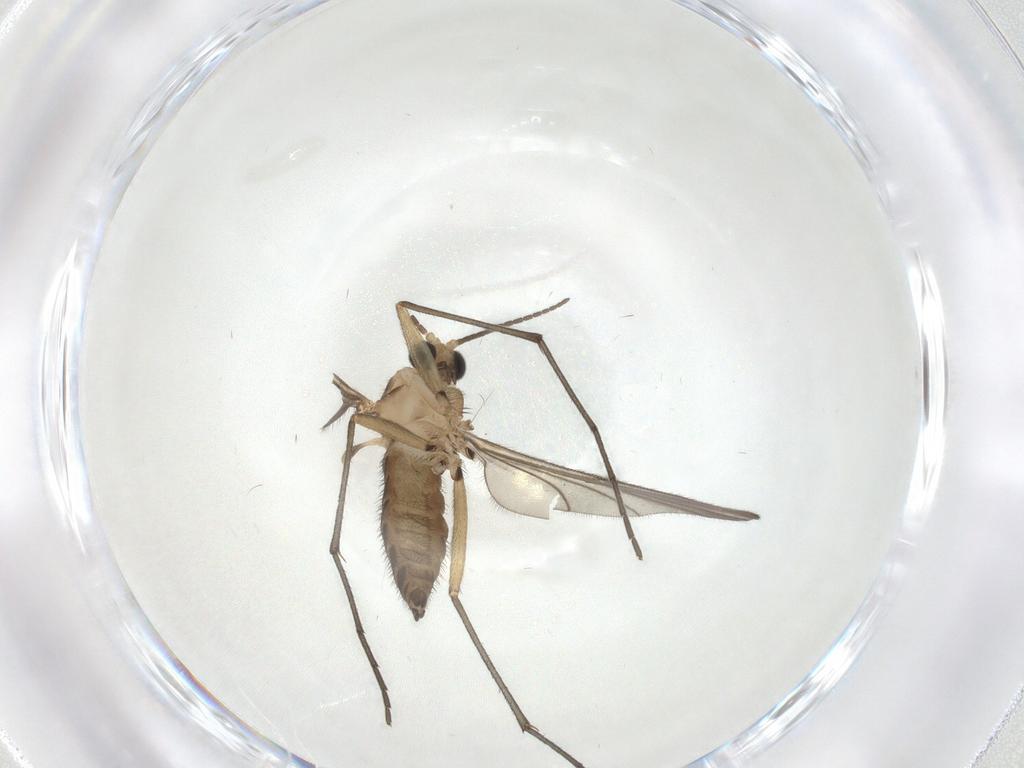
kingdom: Animalia
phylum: Arthropoda
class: Insecta
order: Diptera
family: Sciaridae
